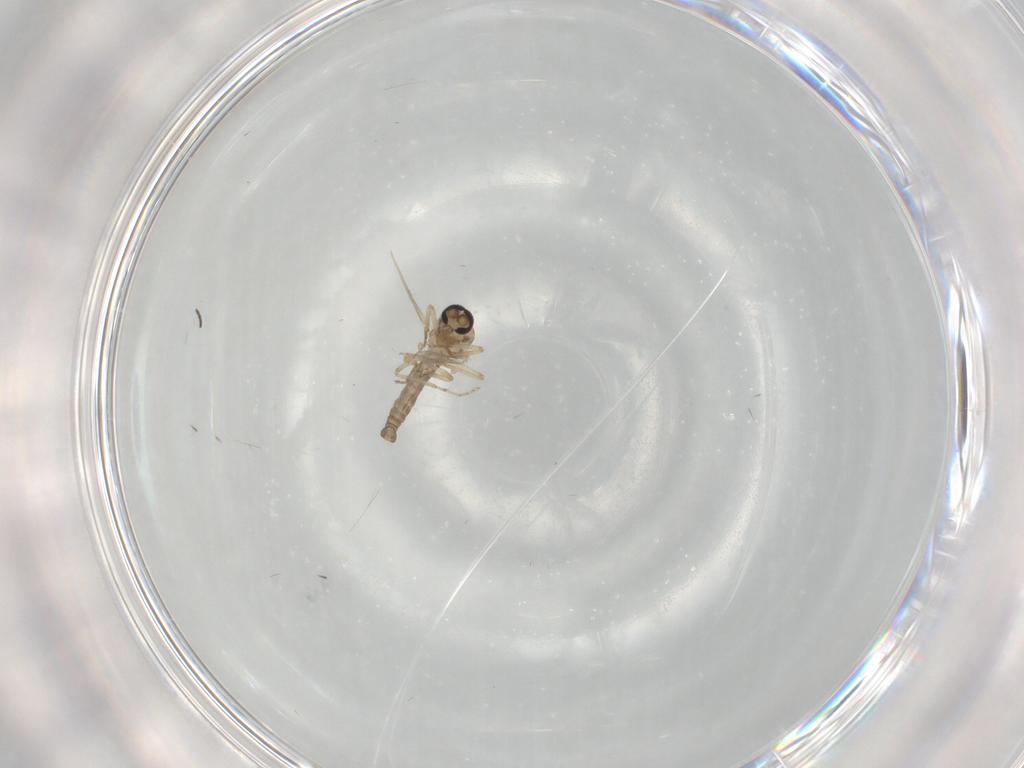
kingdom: Animalia
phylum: Arthropoda
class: Insecta
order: Diptera
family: Ceratopogonidae
